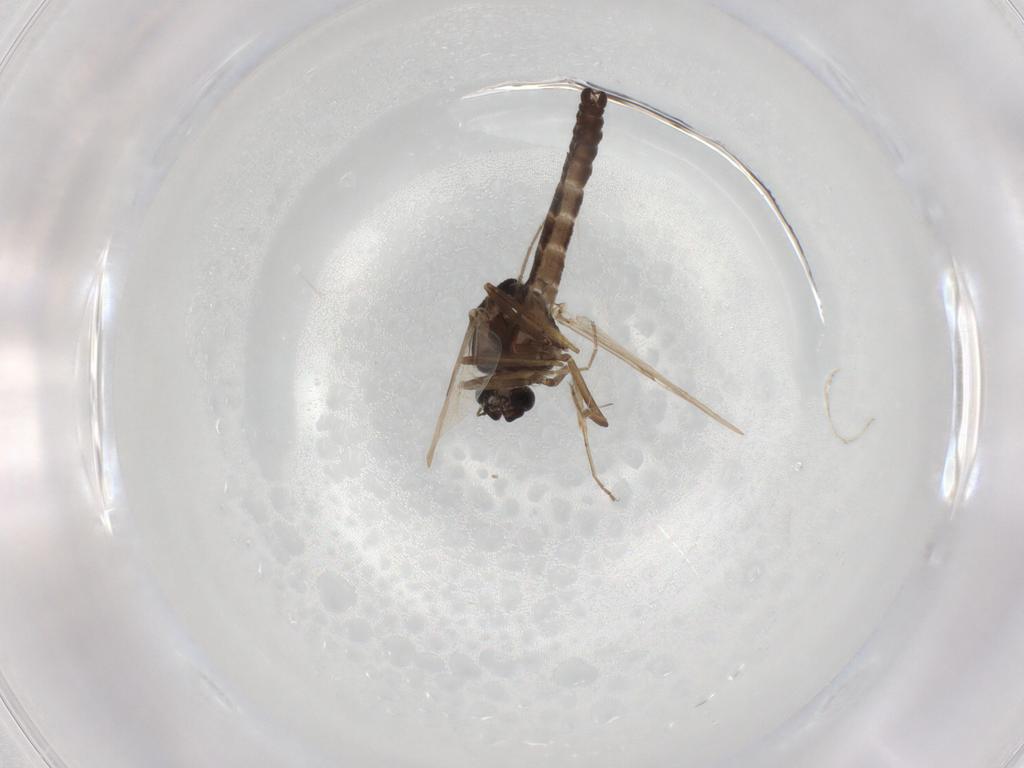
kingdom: Animalia
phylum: Arthropoda
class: Insecta
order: Diptera
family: Ceratopogonidae
